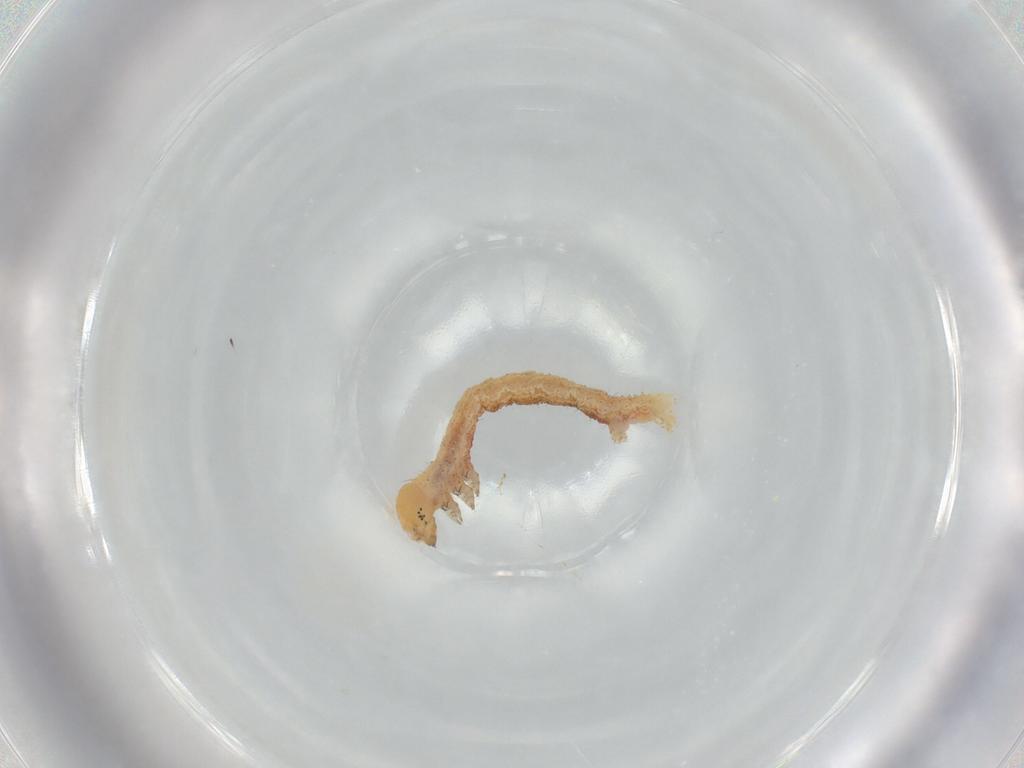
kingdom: Animalia
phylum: Arthropoda
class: Insecta
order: Lepidoptera
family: Geometridae
